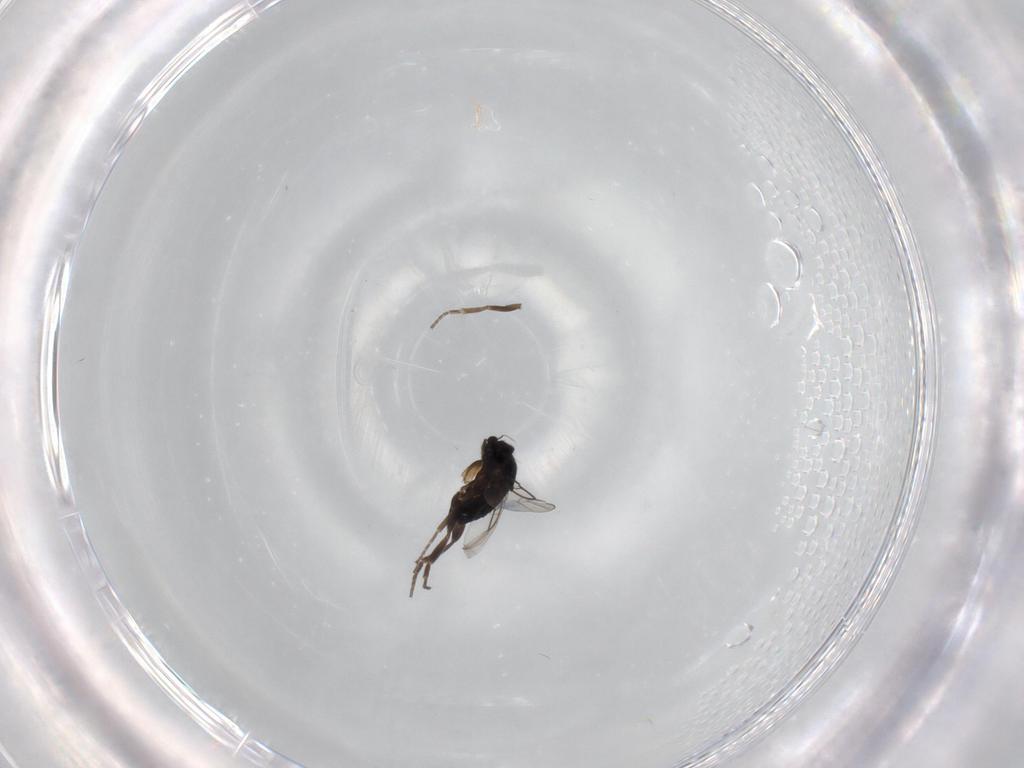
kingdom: Animalia
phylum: Arthropoda
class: Insecta
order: Diptera
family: Phoridae
